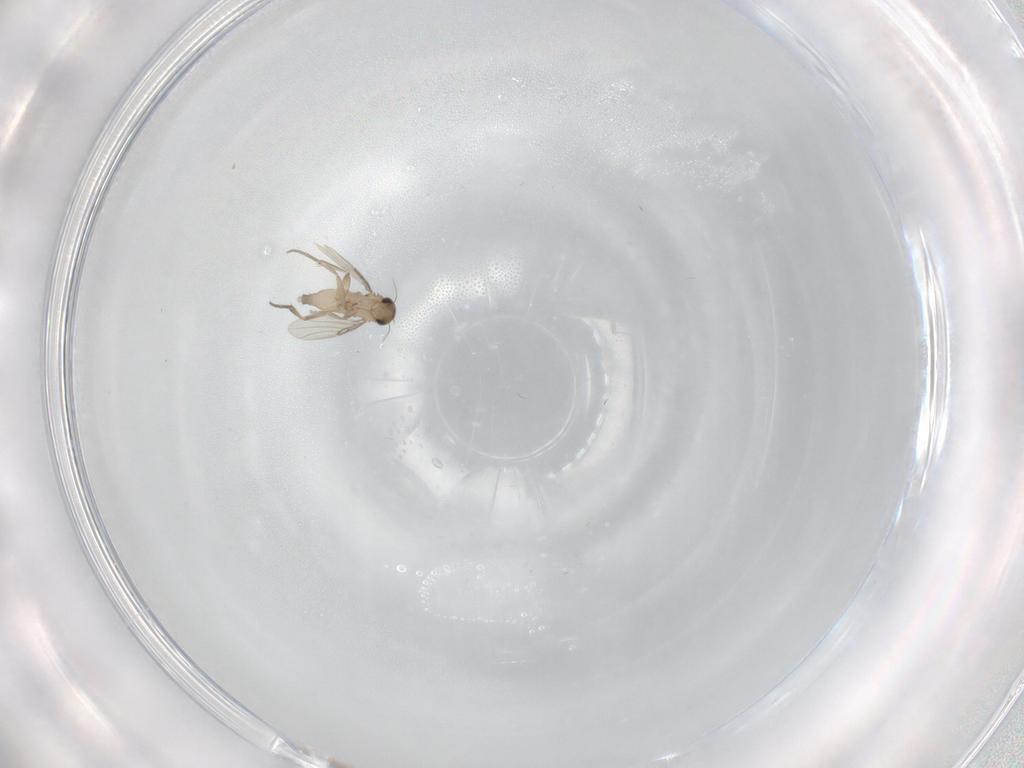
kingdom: Animalia
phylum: Arthropoda
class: Insecta
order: Diptera
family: Phoridae
